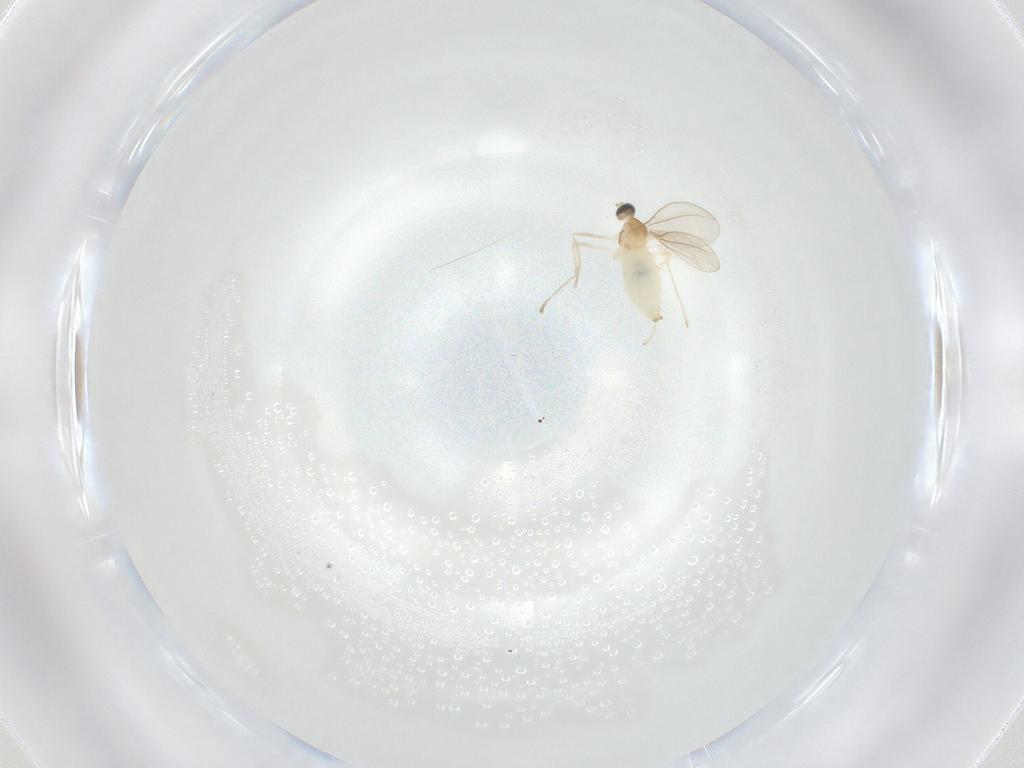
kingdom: Animalia
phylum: Arthropoda
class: Insecta
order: Diptera
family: Cecidomyiidae
